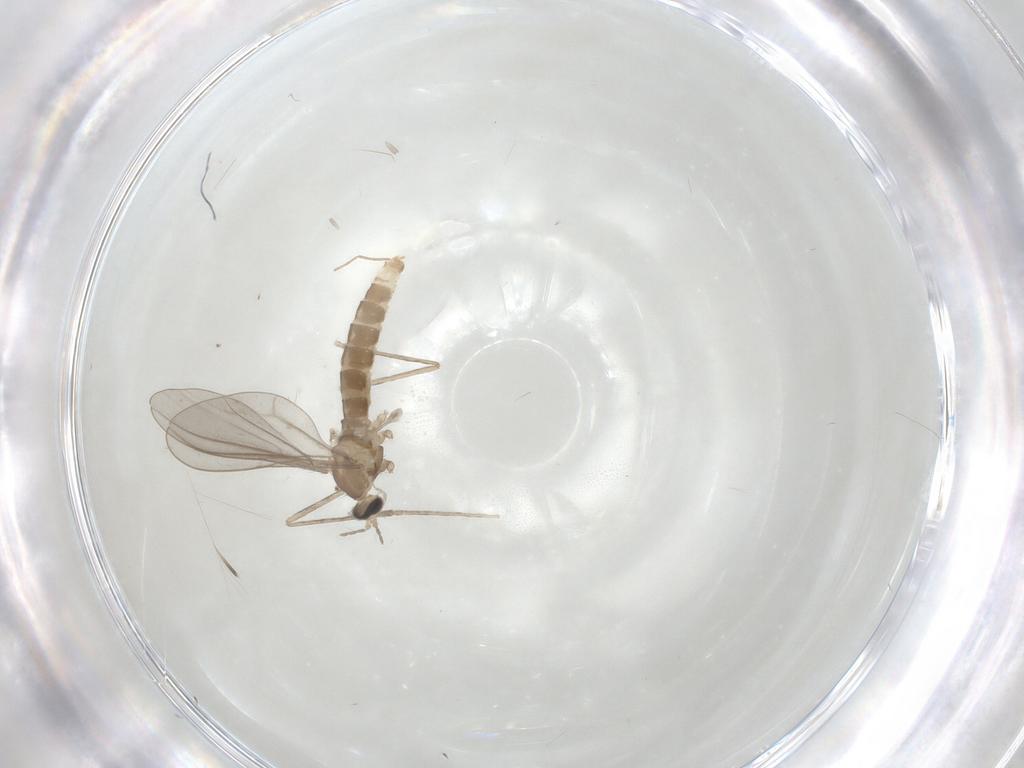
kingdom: Animalia
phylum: Arthropoda
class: Insecta
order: Diptera
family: Cecidomyiidae
